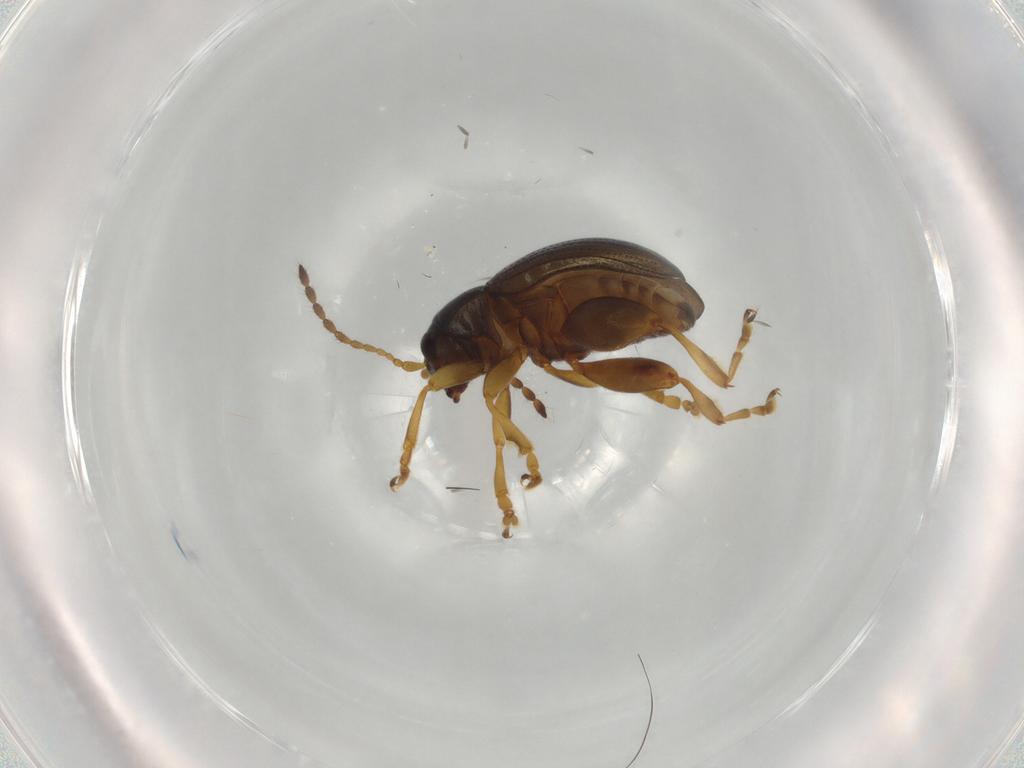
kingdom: Animalia
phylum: Arthropoda
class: Insecta
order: Coleoptera
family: Chrysomelidae
